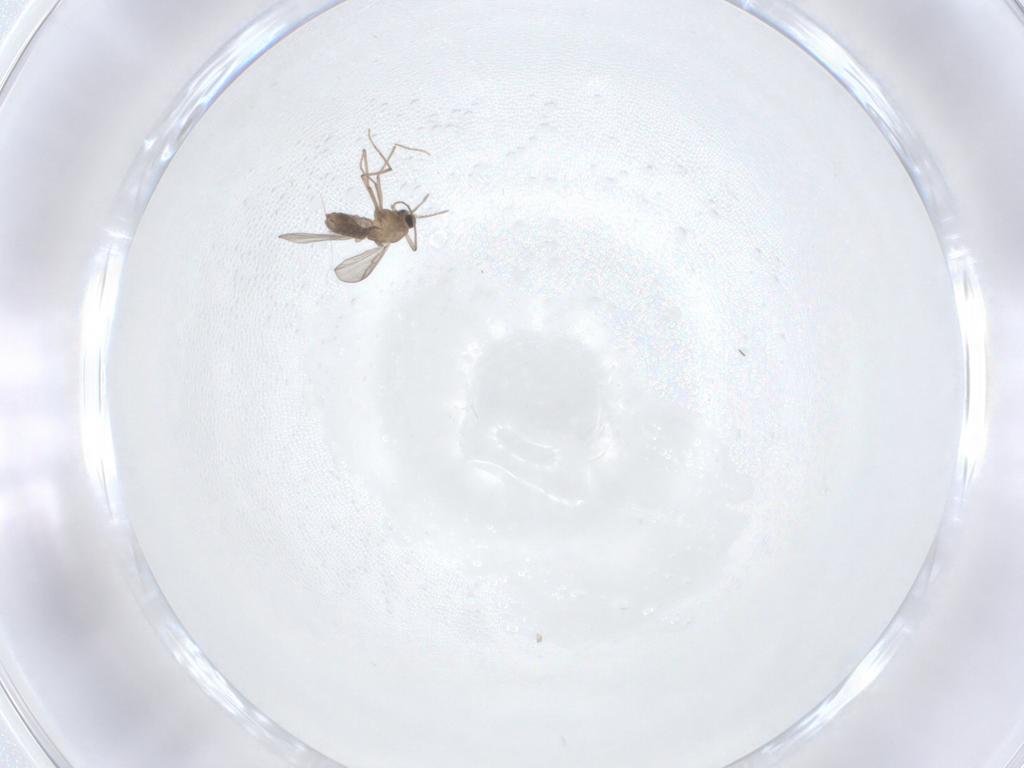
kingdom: Animalia
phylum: Arthropoda
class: Insecta
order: Diptera
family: Chironomidae
